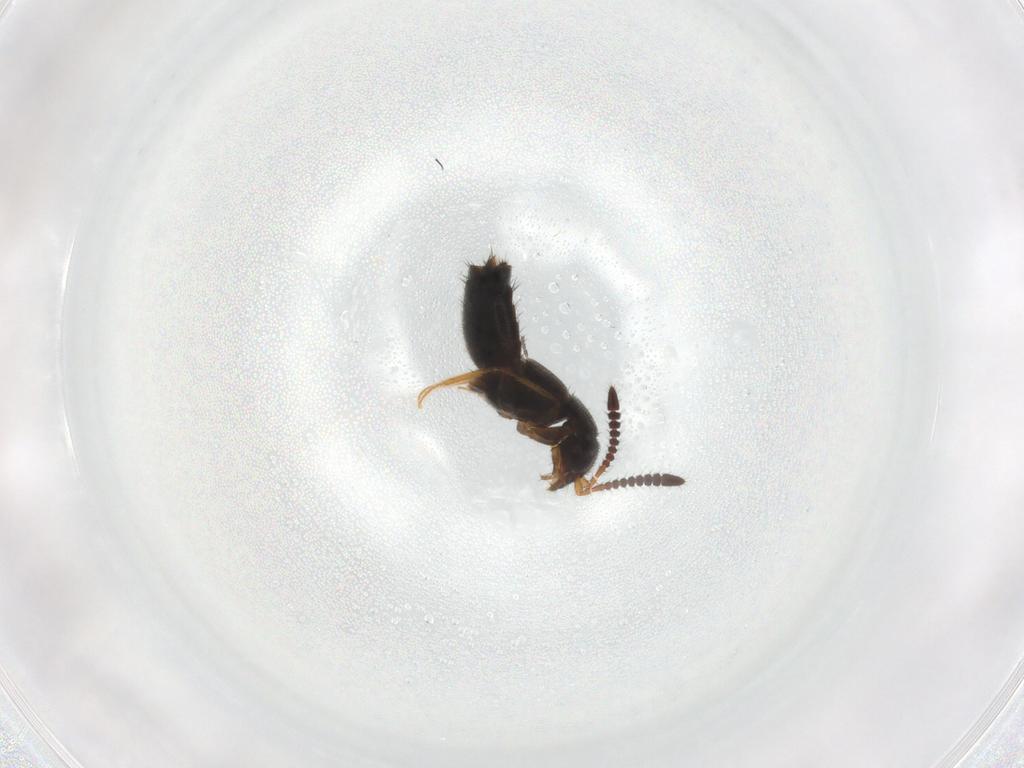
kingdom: Animalia
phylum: Arthropoda
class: Insecta
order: Coleoptera
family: Staphylinidae
